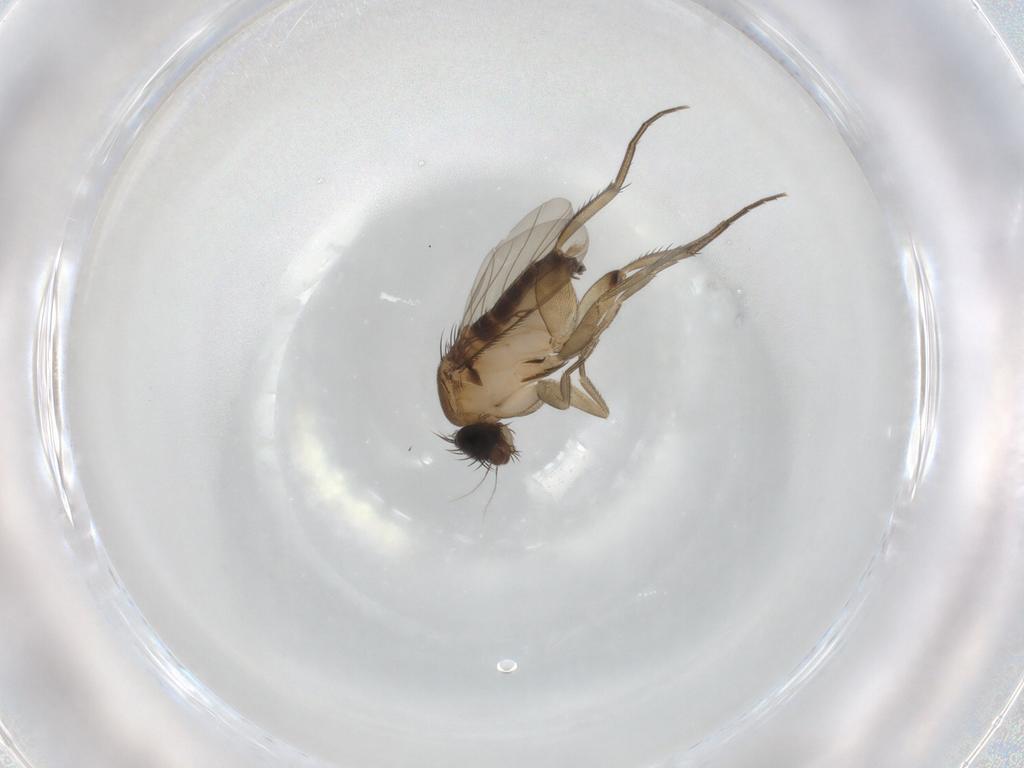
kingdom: Animalia
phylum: Arthropoda
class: Insecta
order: Diptera
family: Phoridae
